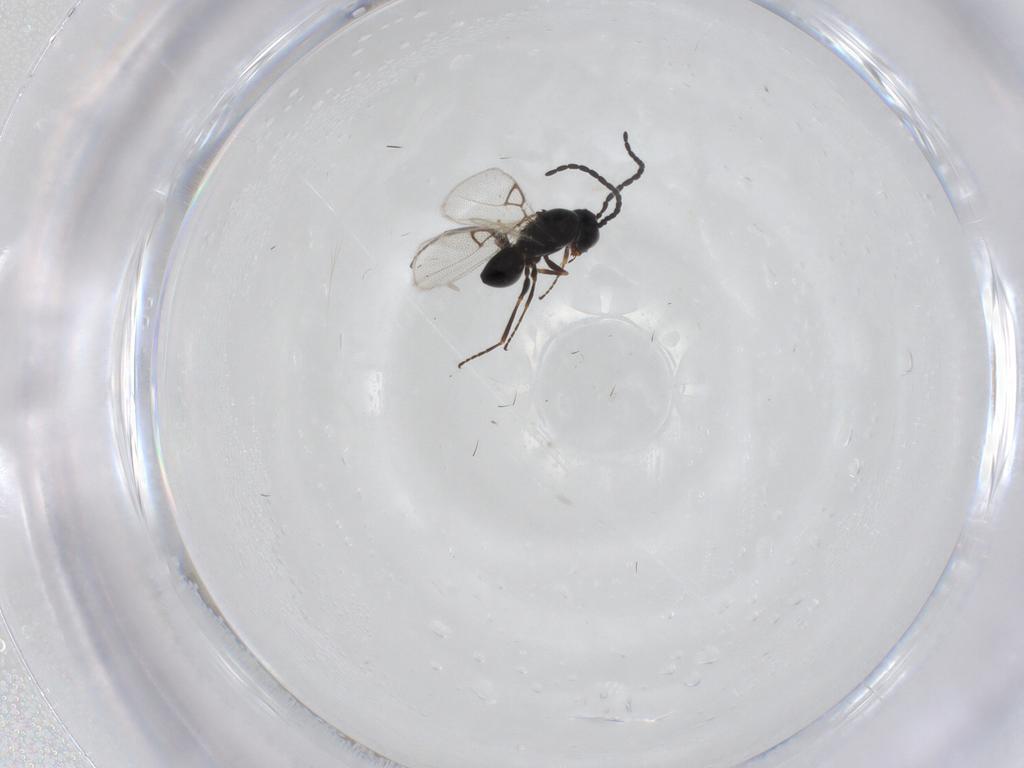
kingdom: Animalia
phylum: Arthropoda
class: Insecta
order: Hymenoptera
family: Figitidae
